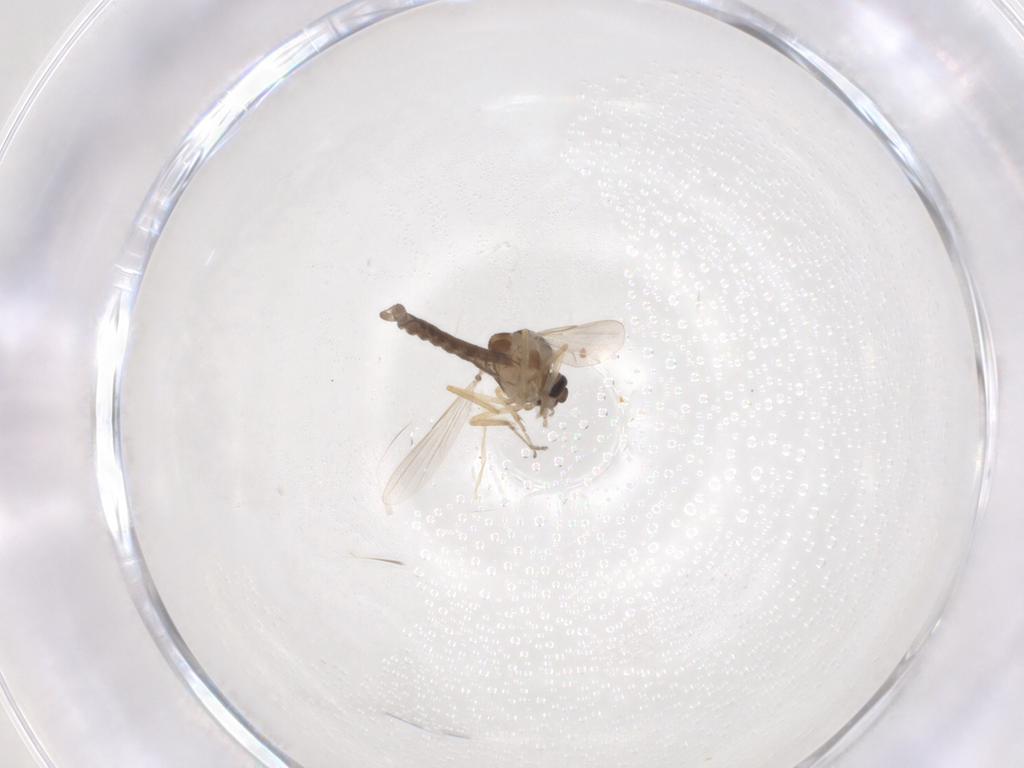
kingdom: Animalia
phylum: Arthropoda
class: Insecta
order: Diptera
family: Ceratopogonidae
